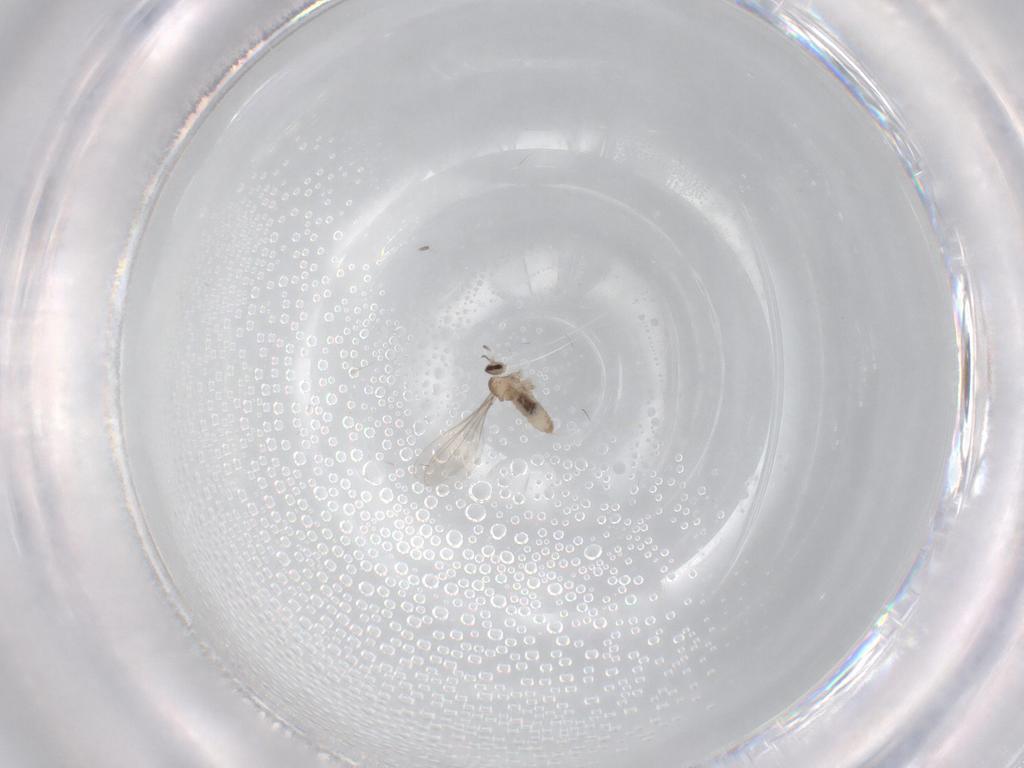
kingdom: Animalia
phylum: Arthropoda
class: Insecta
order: Diptera
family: Cecidomyiidae
